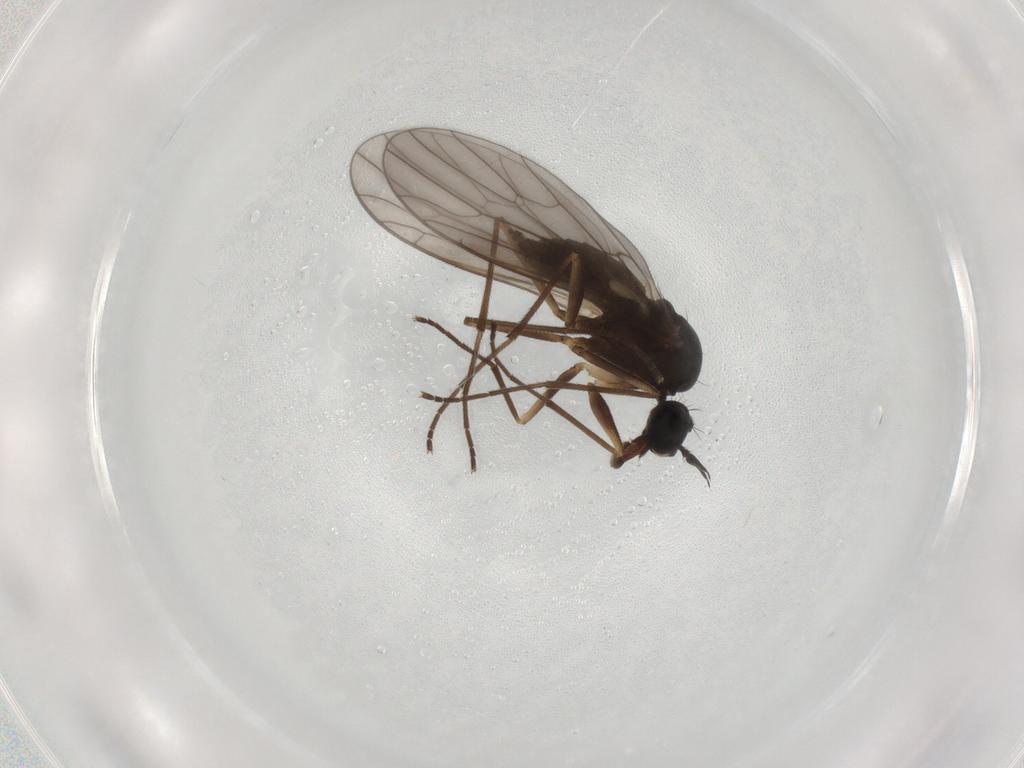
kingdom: Animalia
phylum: Arthropoda
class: Insecta
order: Diptera
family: Empididae
